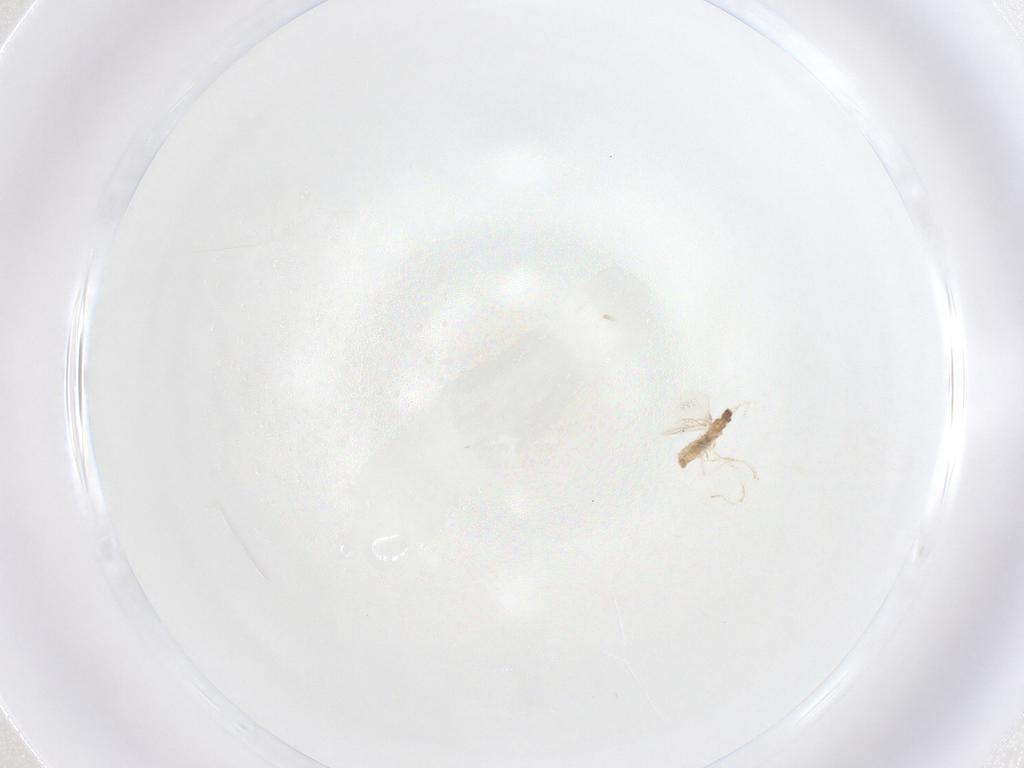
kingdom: Animalia
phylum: Arthropoda
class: Insecta
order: Diptera
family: Cecidomyiidae
